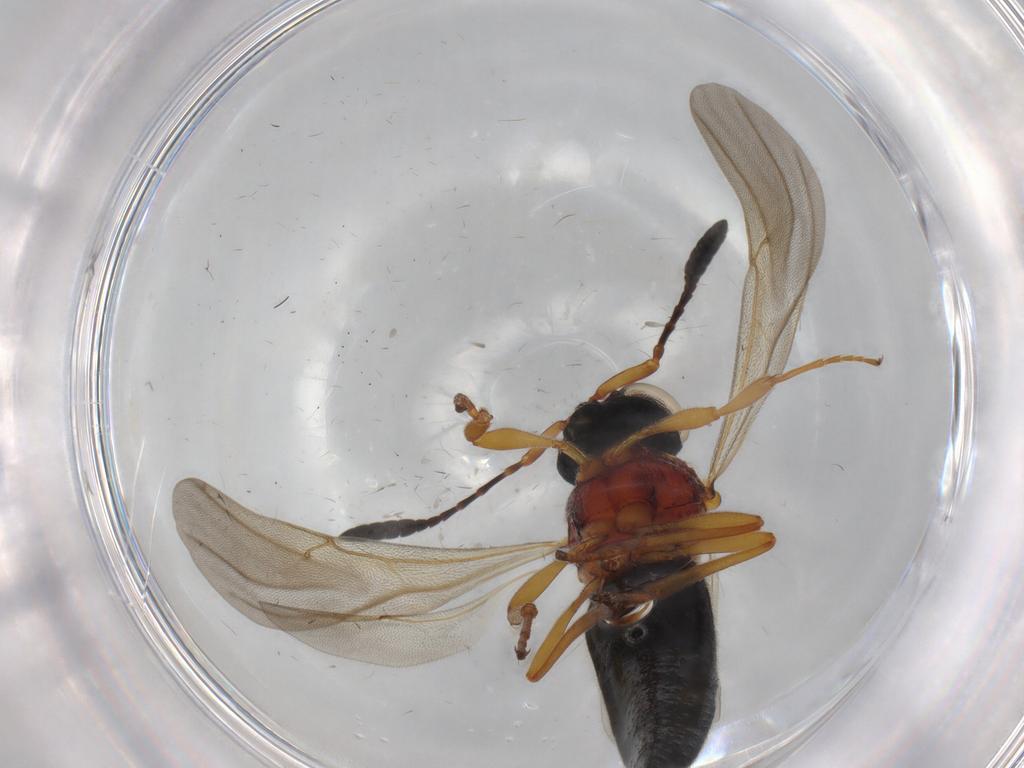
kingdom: Animalia
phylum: Arthropoda
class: Insecta
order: Hymenoptera
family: Scelionidae
